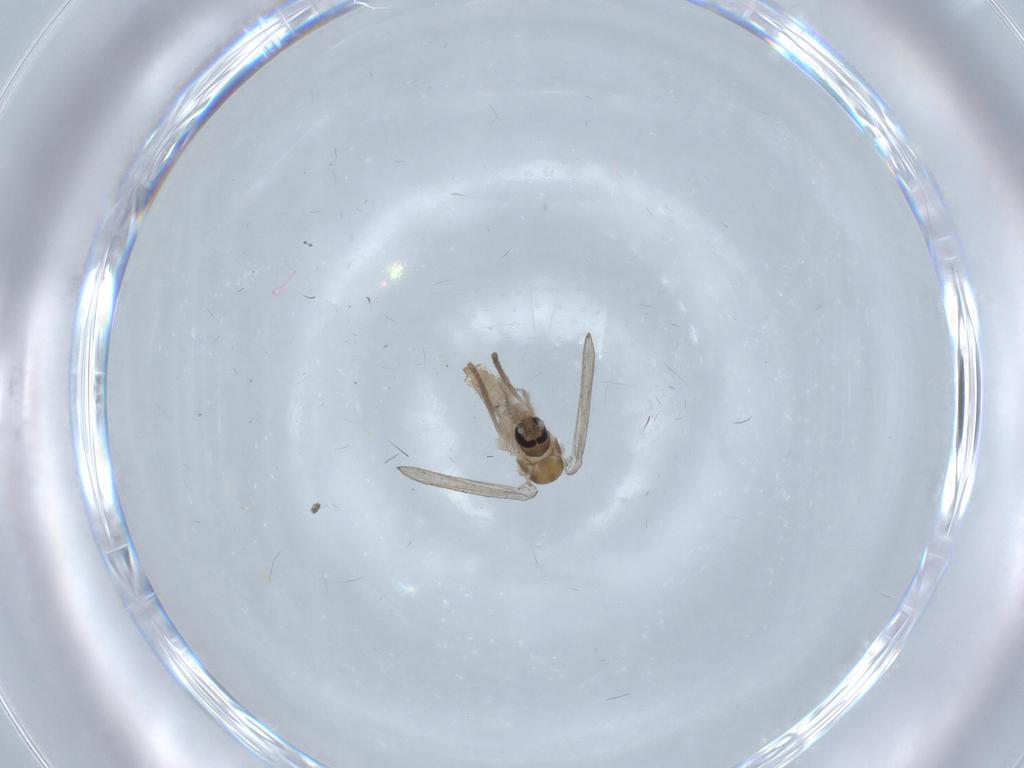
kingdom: Animalia
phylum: Arthropoda
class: Insecta
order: Diptera
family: Psychodidae
